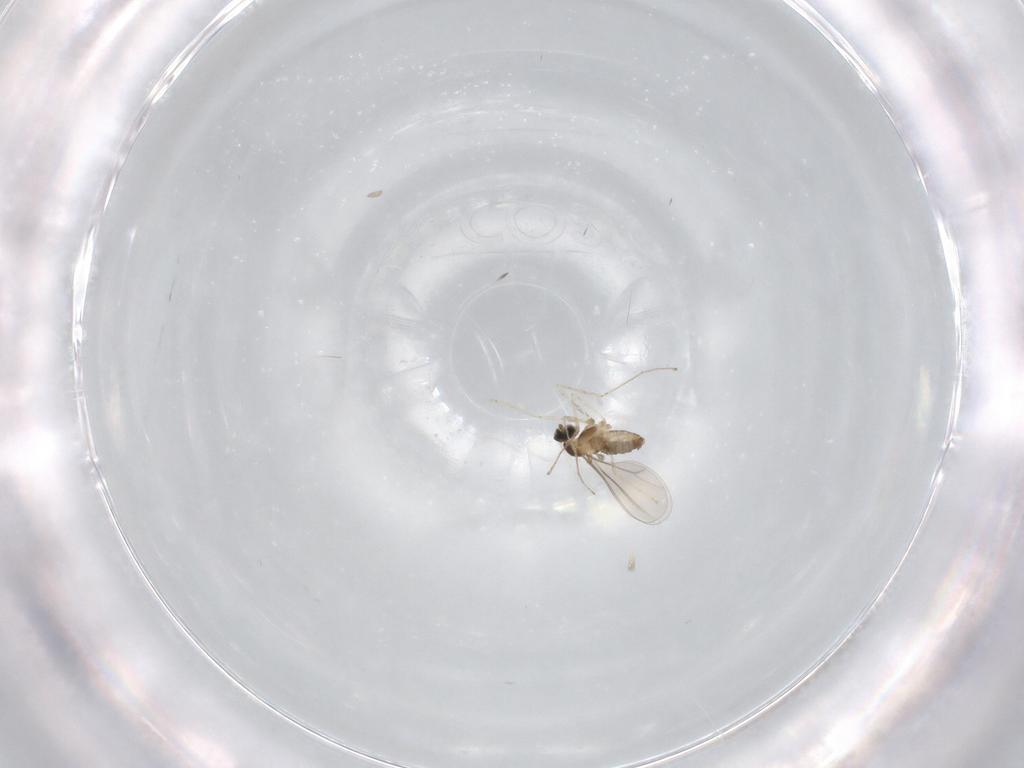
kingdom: Animalia
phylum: Arthropoda
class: Insecta
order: Diptera
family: Cecidomyiidae
